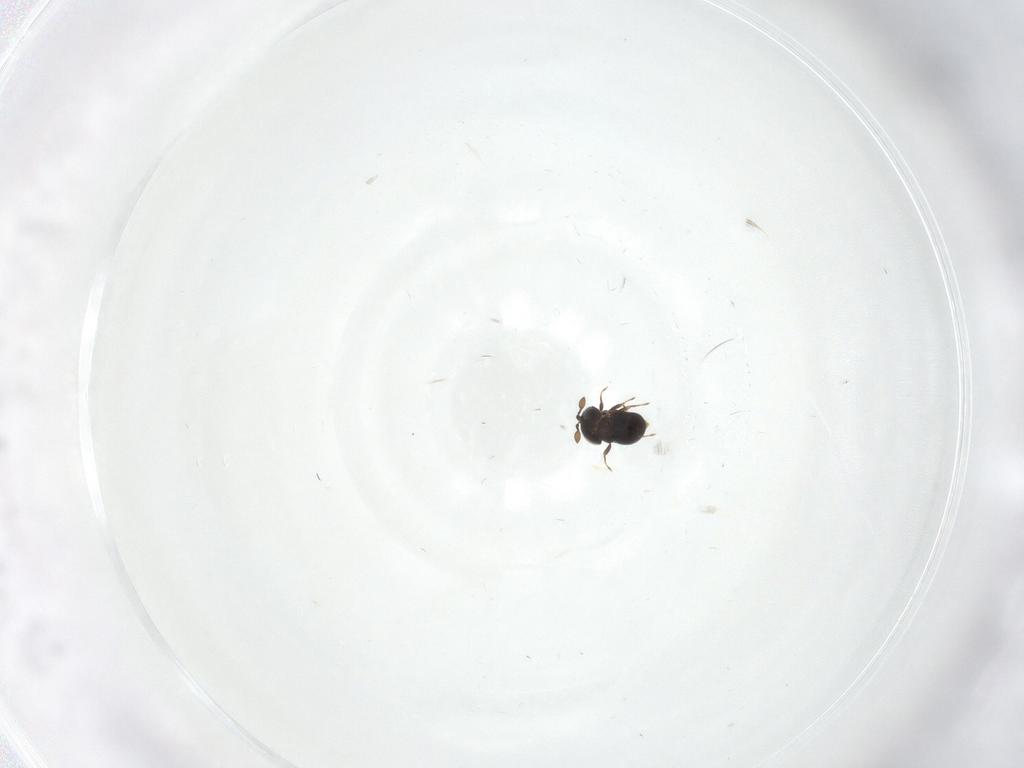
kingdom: Animalia
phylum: Arthropoda
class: Insecta
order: Hymenoptera
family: Scelionidae
